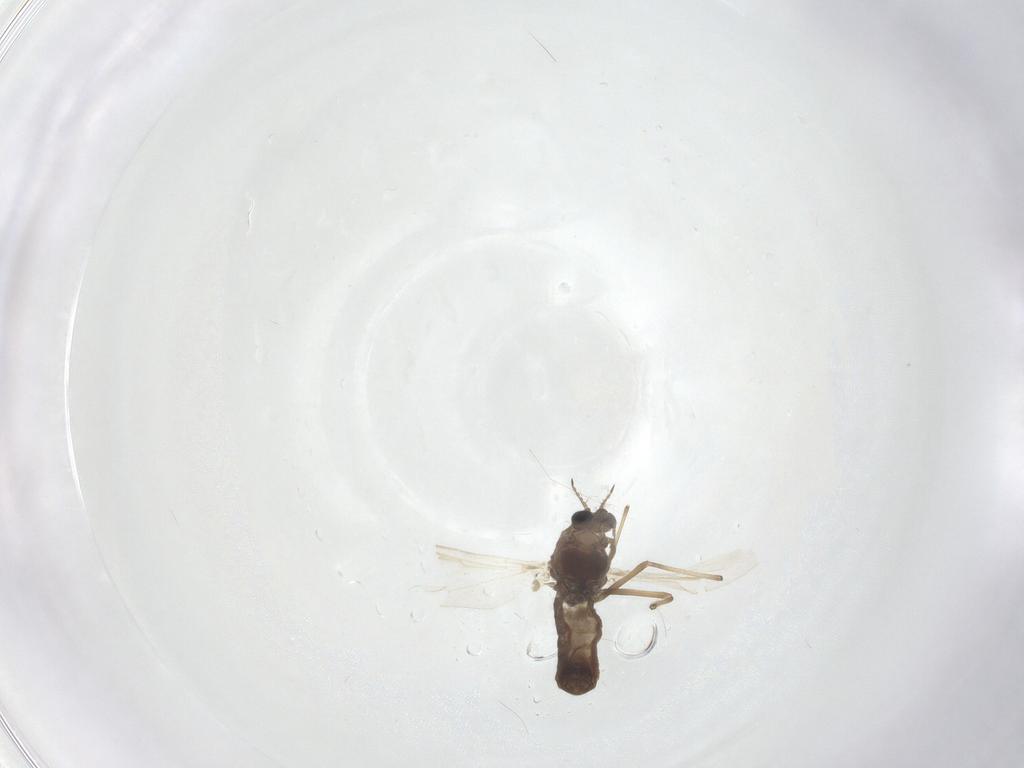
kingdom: Animalia
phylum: Arthropoda
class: Insecta
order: Diptera
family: Chironomidae
